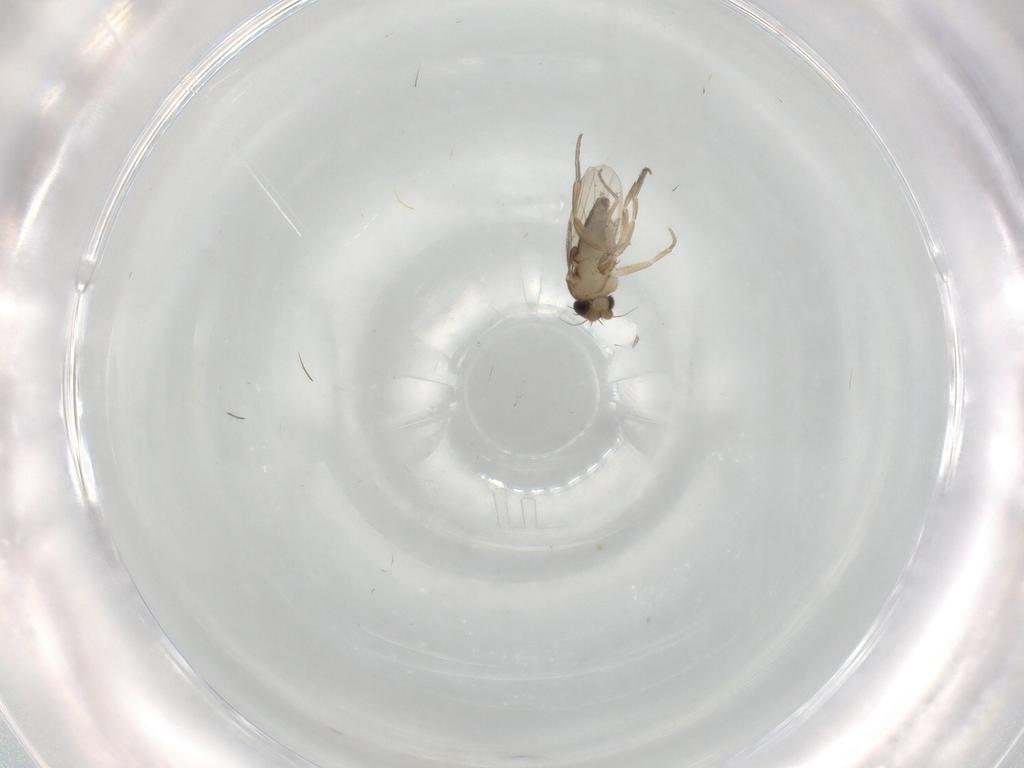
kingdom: Animalia
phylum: Arthropoda
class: Insecta
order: Diptera
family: Phoridae
